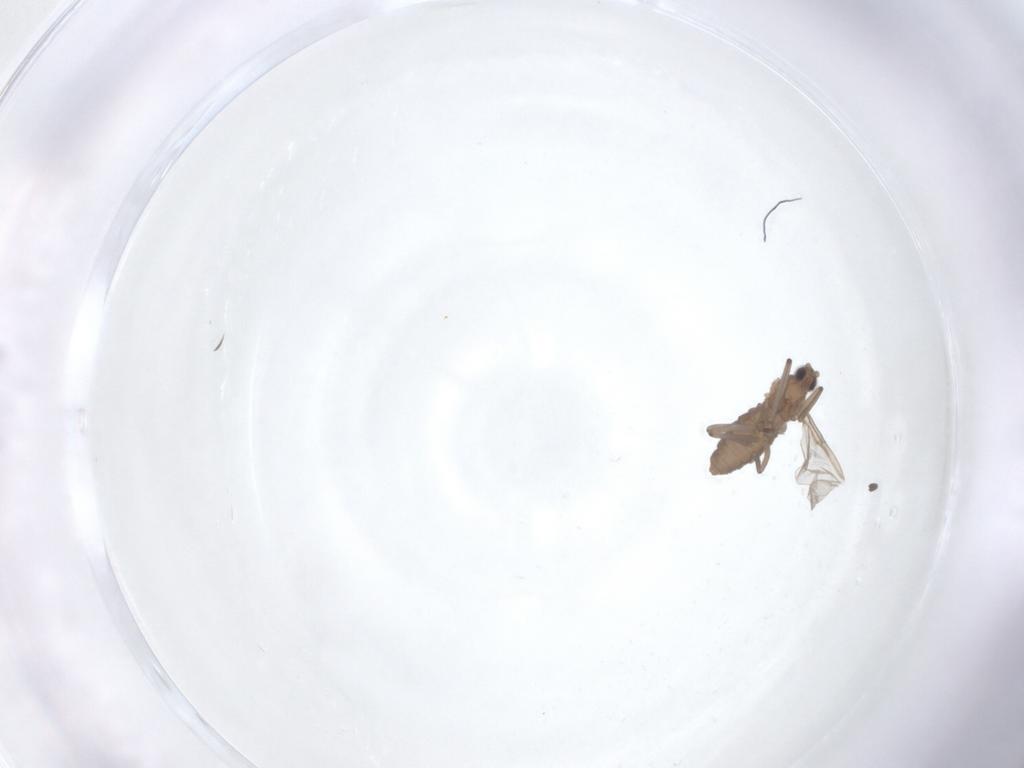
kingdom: Animalia
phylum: Arthropoda
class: Insecta
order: Diptera
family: Cecidomyiidae
